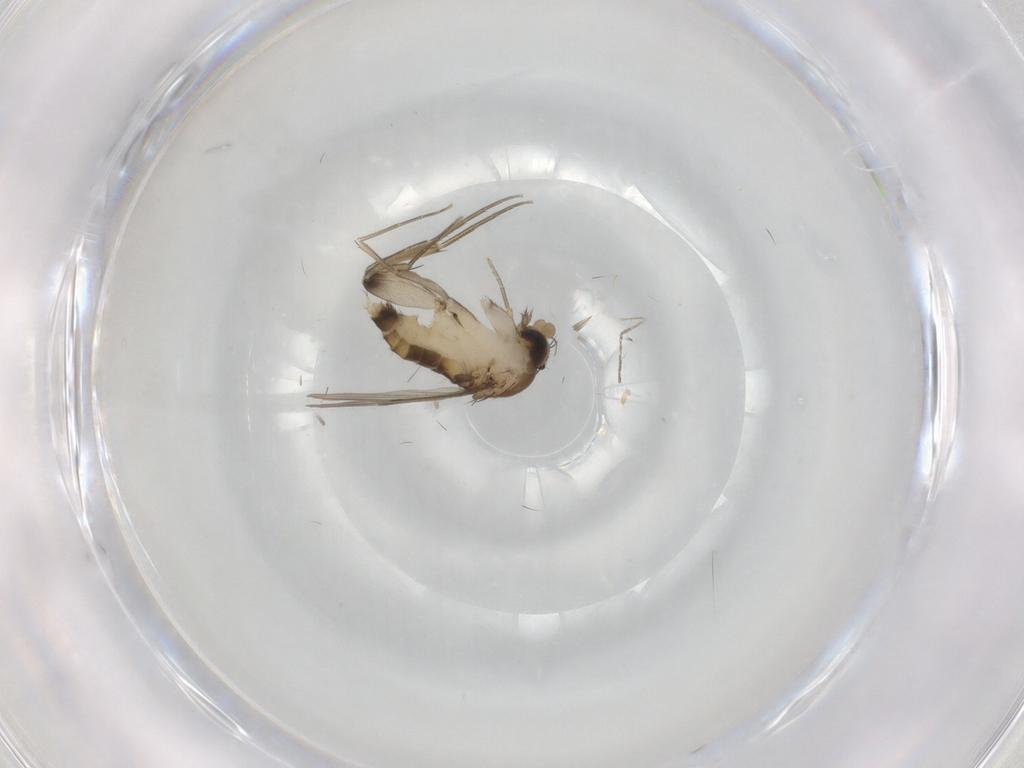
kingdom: Animalia
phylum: Arthropoda
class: Insecta
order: Diptera
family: Chironomidae
